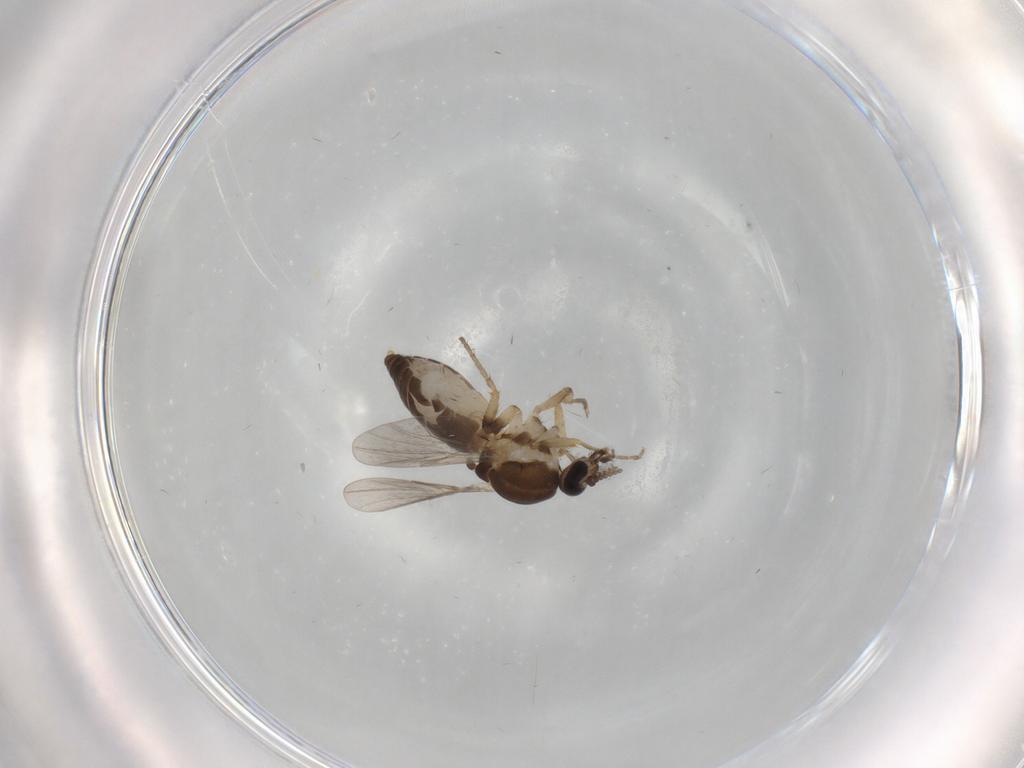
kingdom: Animalia
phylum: Arthropoda
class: Insecta
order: Diptera
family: Ceratopogonidae
